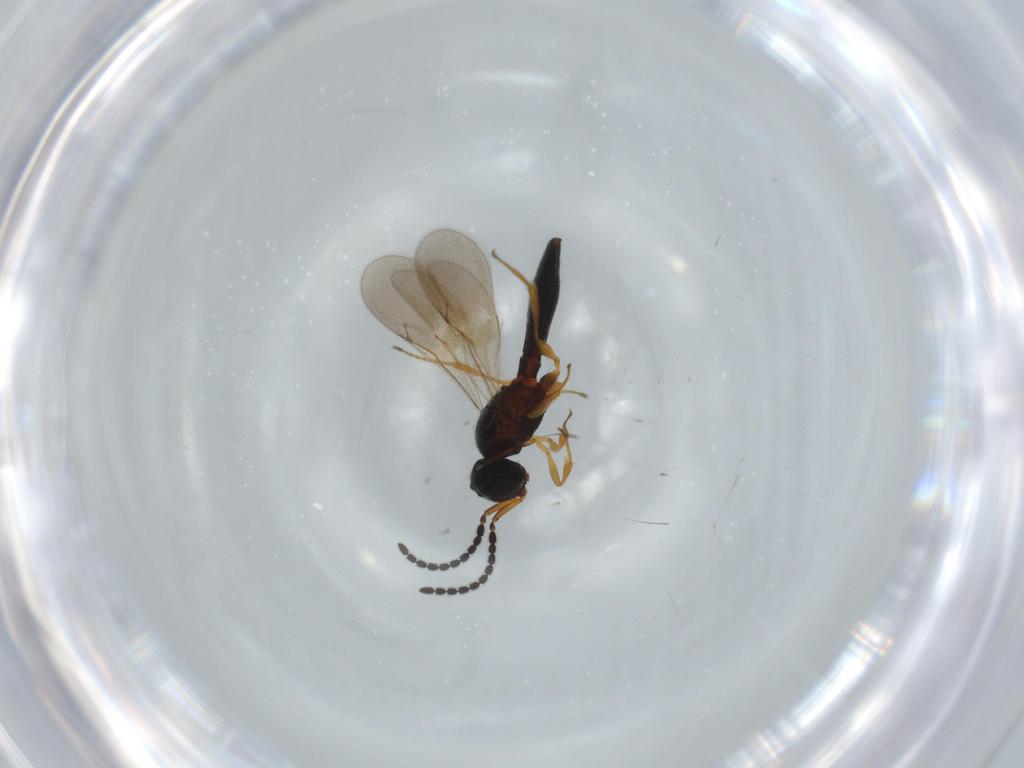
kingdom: Animalia
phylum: Arthropoda
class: Insecta
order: Hymenoptera
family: Scelionidae
